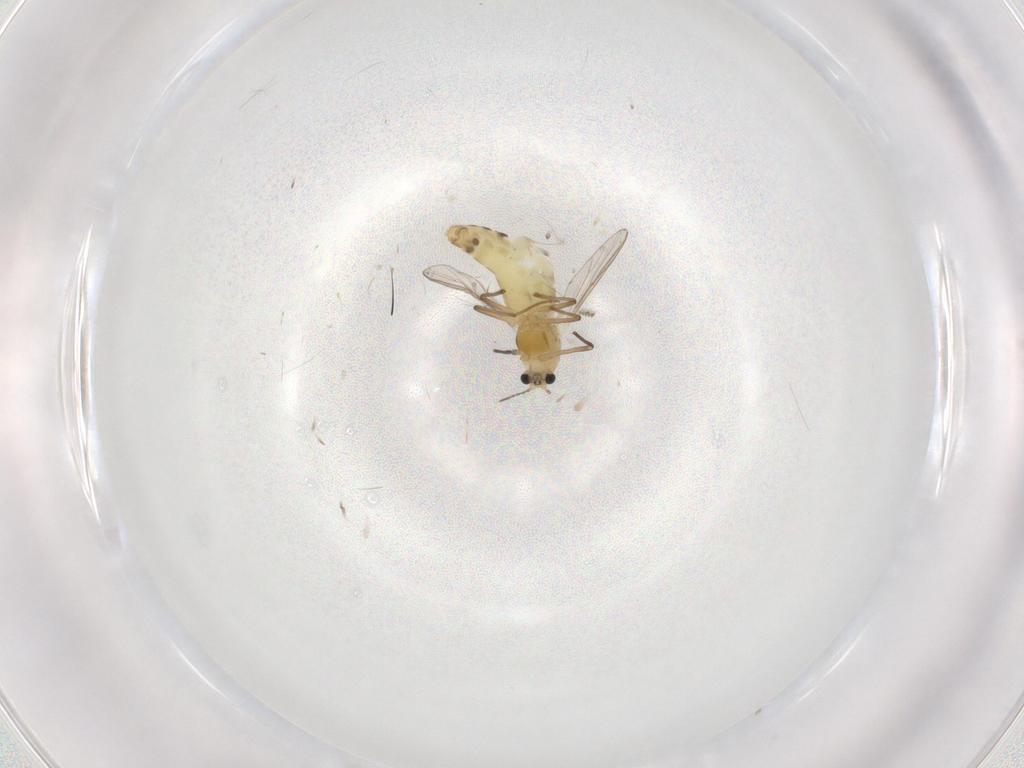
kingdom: Animalia
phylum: Arthropoda
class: Insecta
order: Diptera
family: Chironomidae
